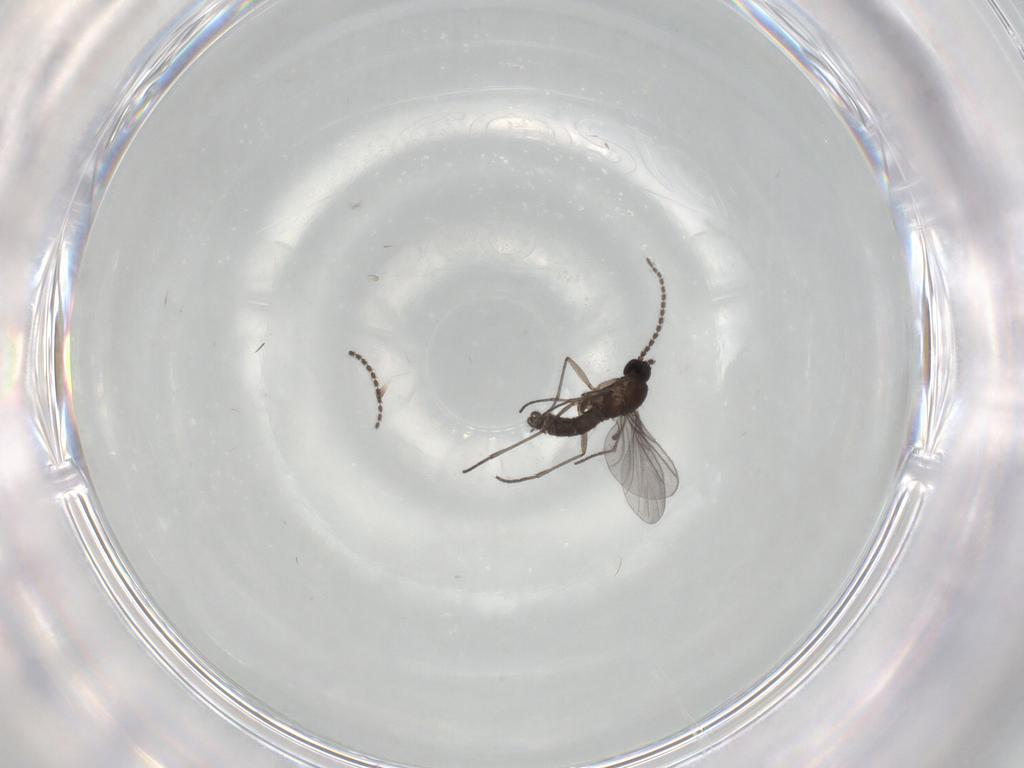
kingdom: Animalia
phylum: Arthropoda
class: Insecta
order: Diptera
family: Sciaridae
